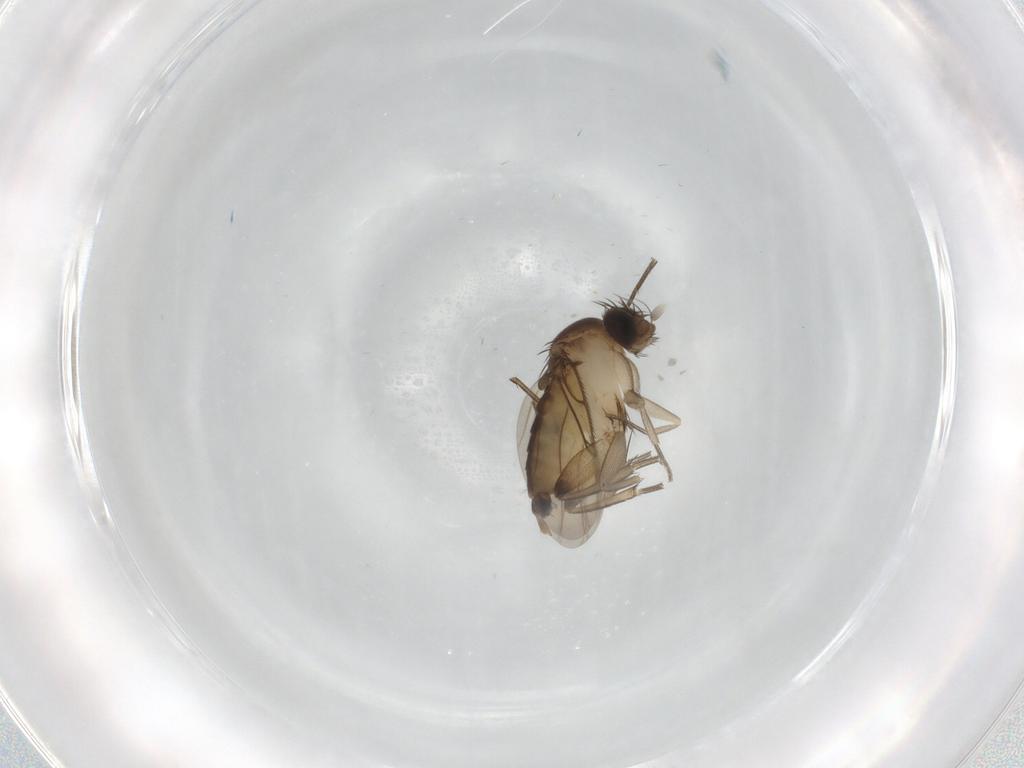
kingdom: Animalia
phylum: Arthropoda
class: Insecta
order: Diptera
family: Phoridae
